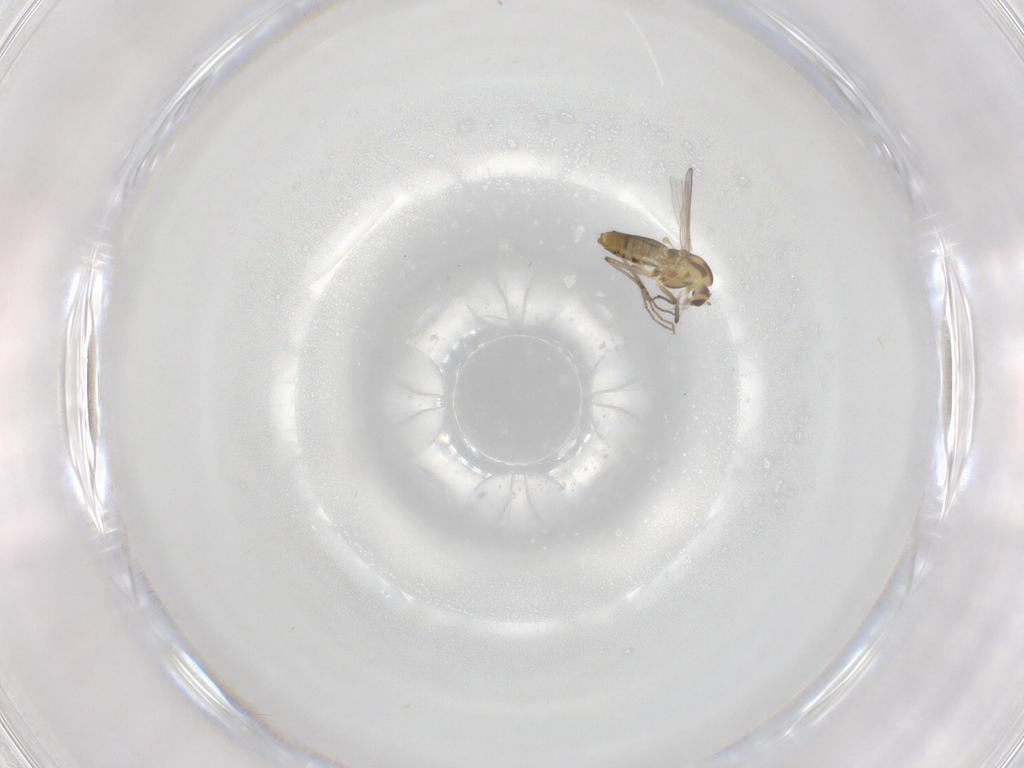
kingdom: Animalia
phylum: Arthropoda
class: Insecta
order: Diptera
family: Chironomidae
